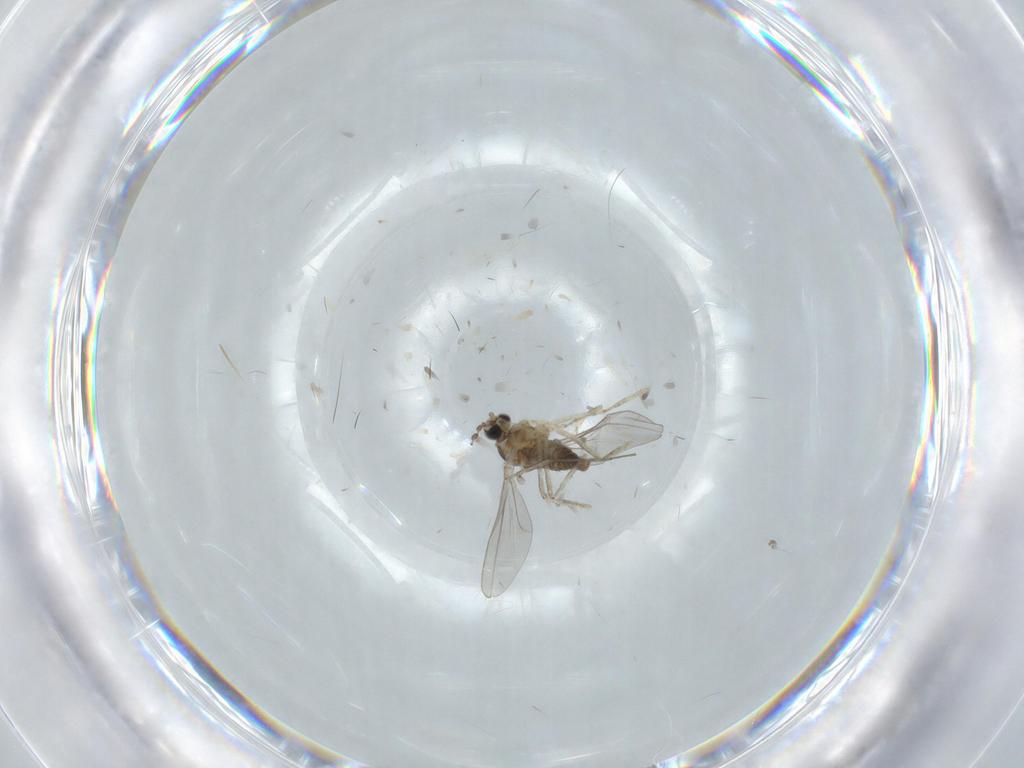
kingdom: Animalia
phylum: Arthropoda
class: Insecta
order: Diptera
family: Cecidomyiidae
